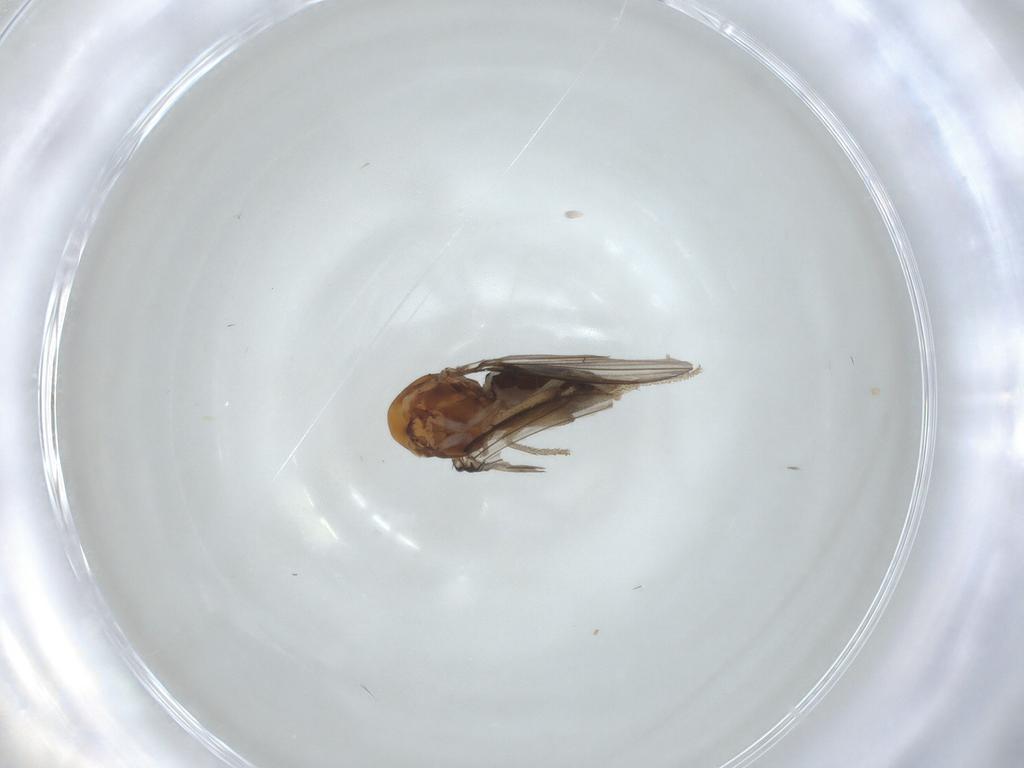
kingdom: Animalia
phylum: Arthropoda
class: Insecta
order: Diptera
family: Drosophilidae
